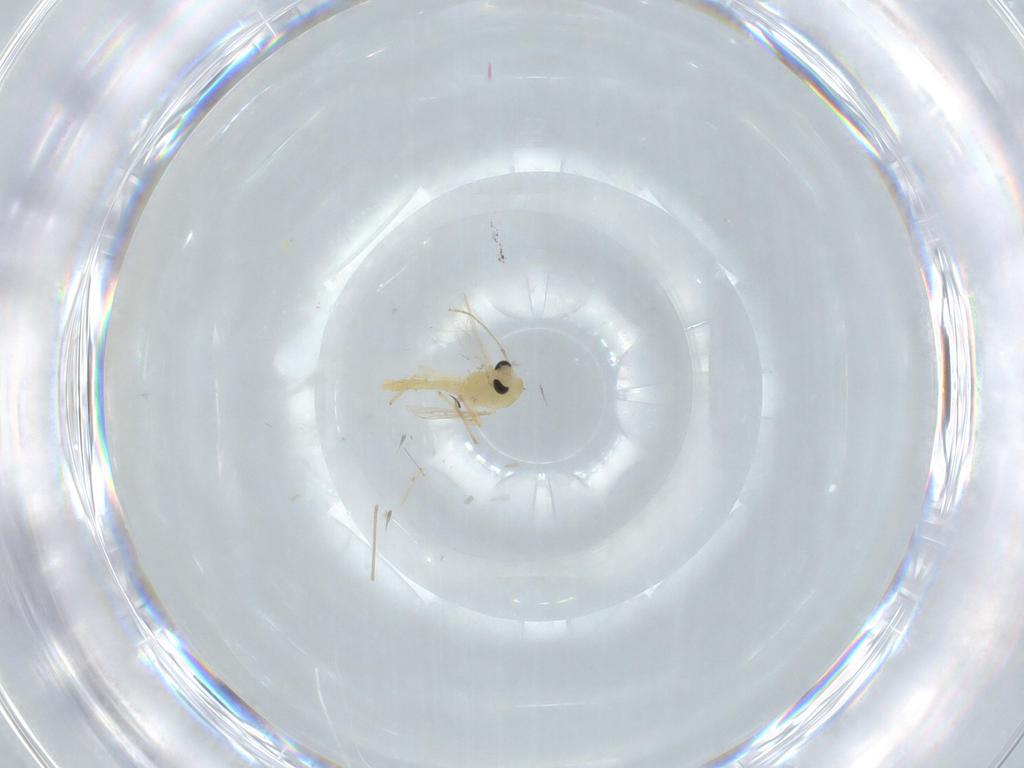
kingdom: Animalia
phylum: Arthropoda
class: Insecta
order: Diptera
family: Chironomidae
